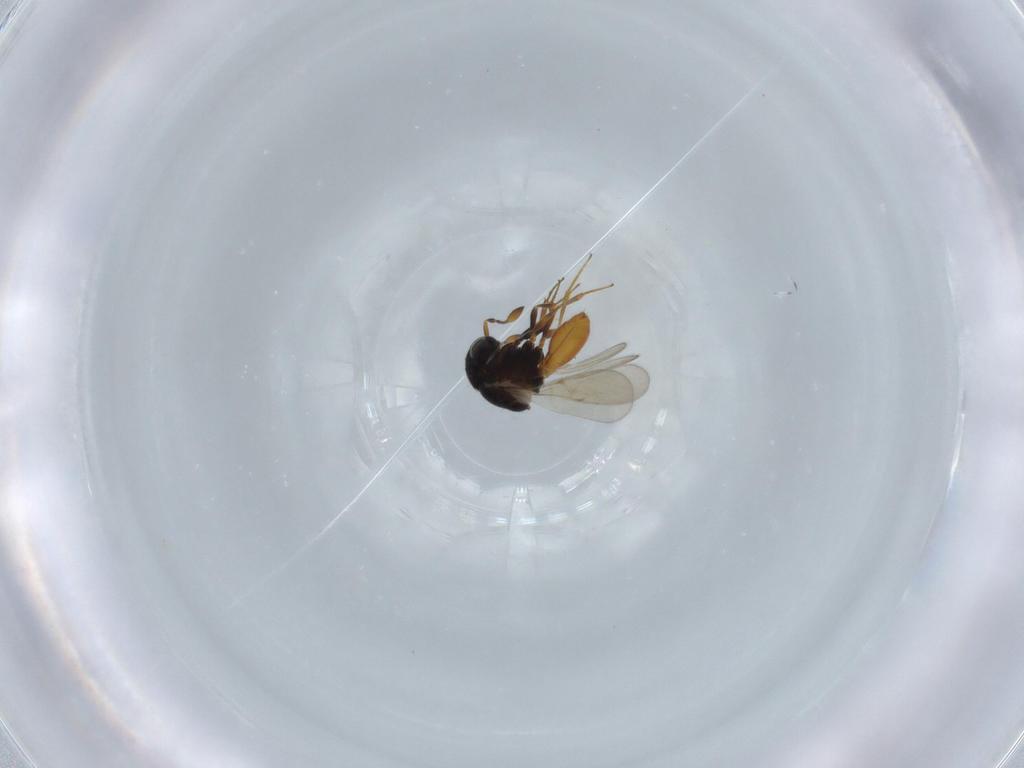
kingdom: Animalia
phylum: Arthropoda
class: Insecta
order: Hymenoptera
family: Scelionidae
